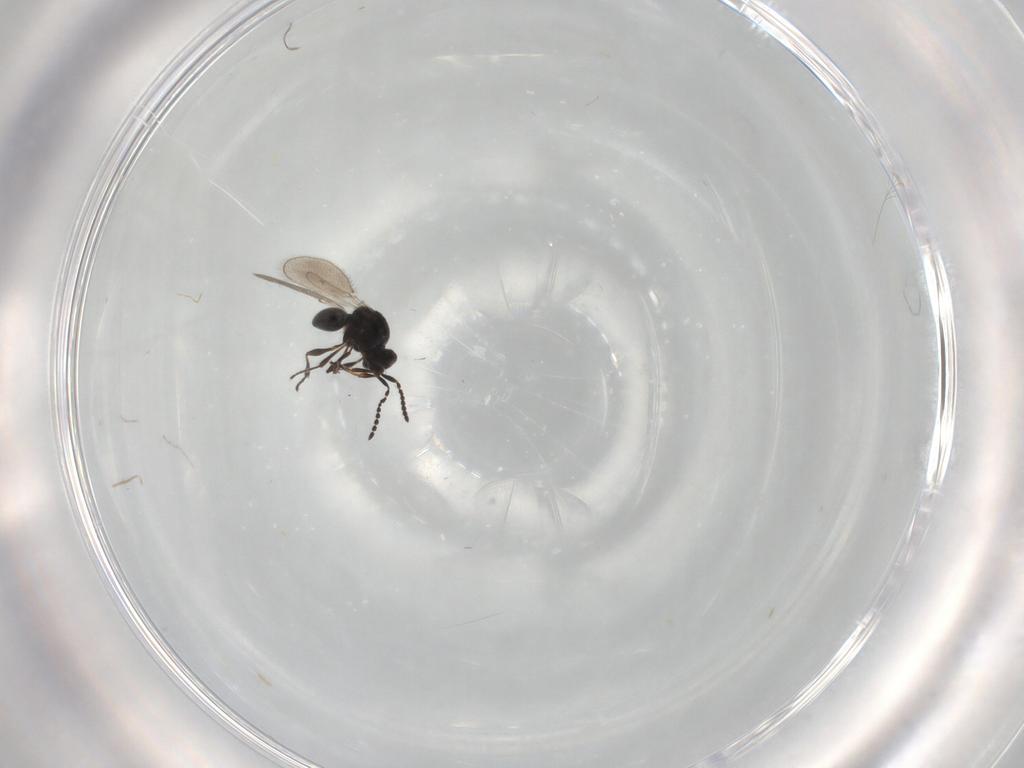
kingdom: Animalia
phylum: Arthropoda
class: Insecta
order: Hymenoptera
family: Platygastridae
